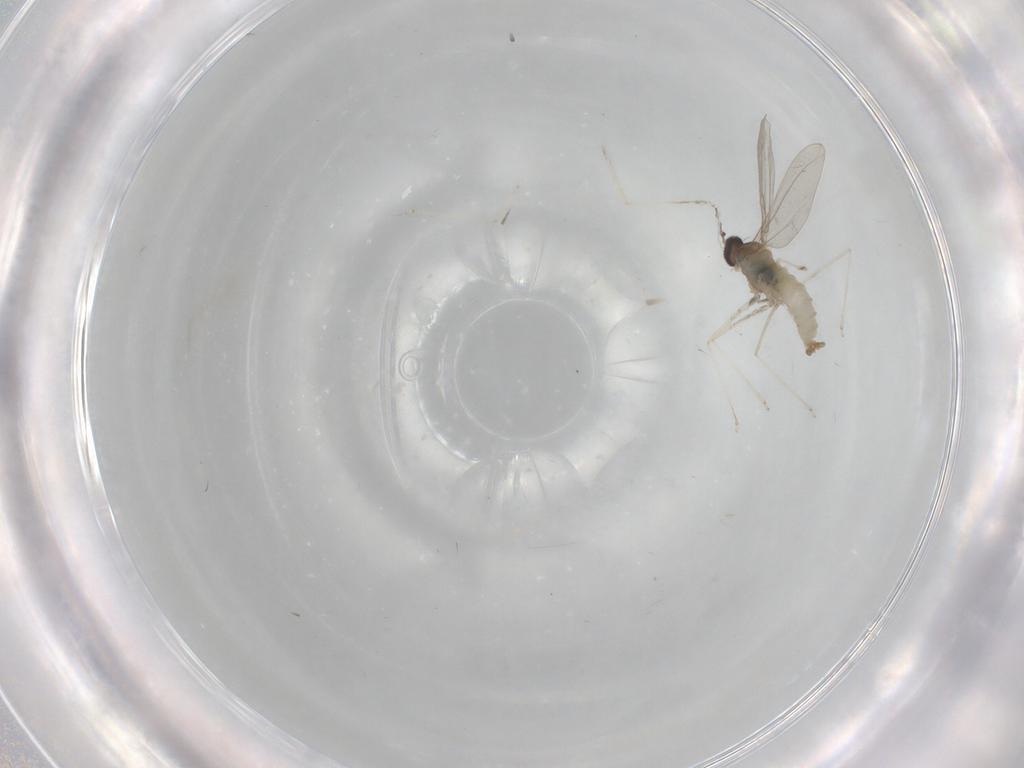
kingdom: Animalia
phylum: Arthropoda
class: Insecta
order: Diptera
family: Cecidomyiidae
